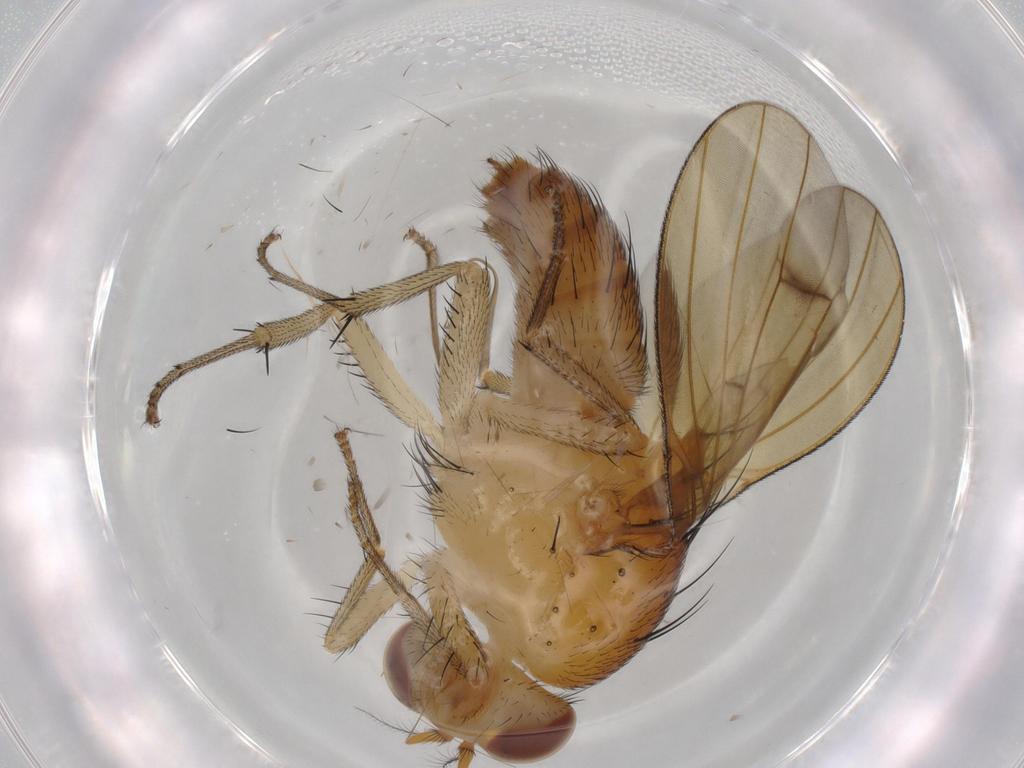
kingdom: Animalia
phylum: Arthropoda
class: Insecta
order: Diptera
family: Lauxaniidae
